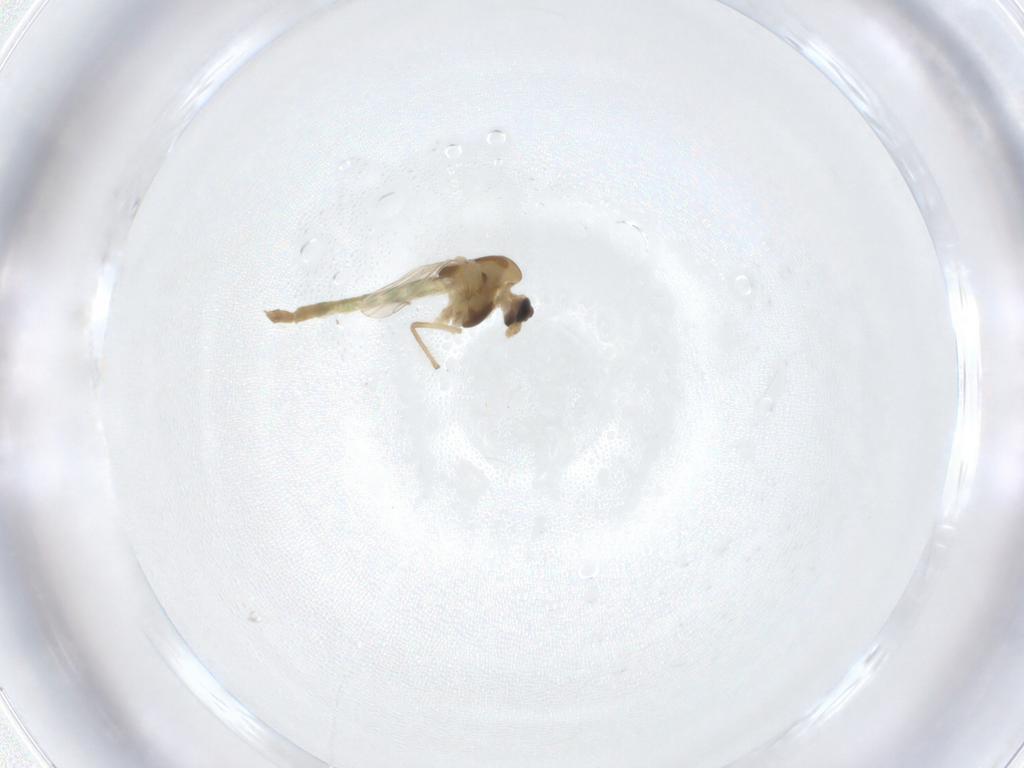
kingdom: Animalia
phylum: Arthropoda
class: Insecta
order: Diptera
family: Chironomidae
